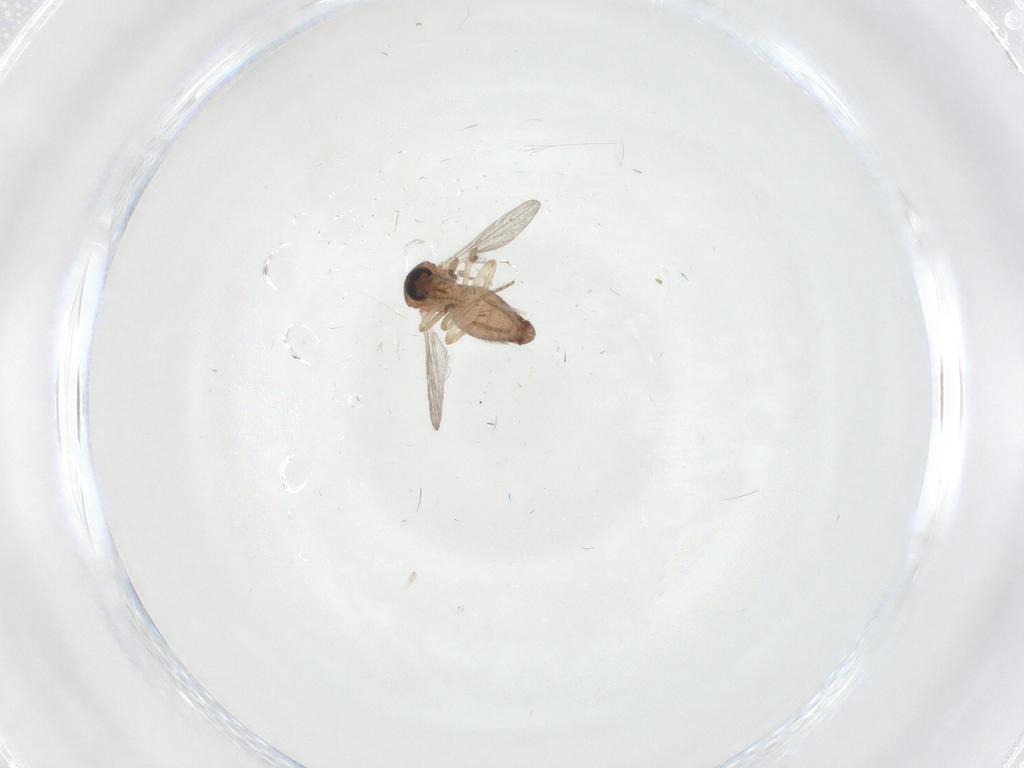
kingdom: Animalia
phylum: Arthropoda
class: Insecta
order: Diptera
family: Ceratopogonidae
